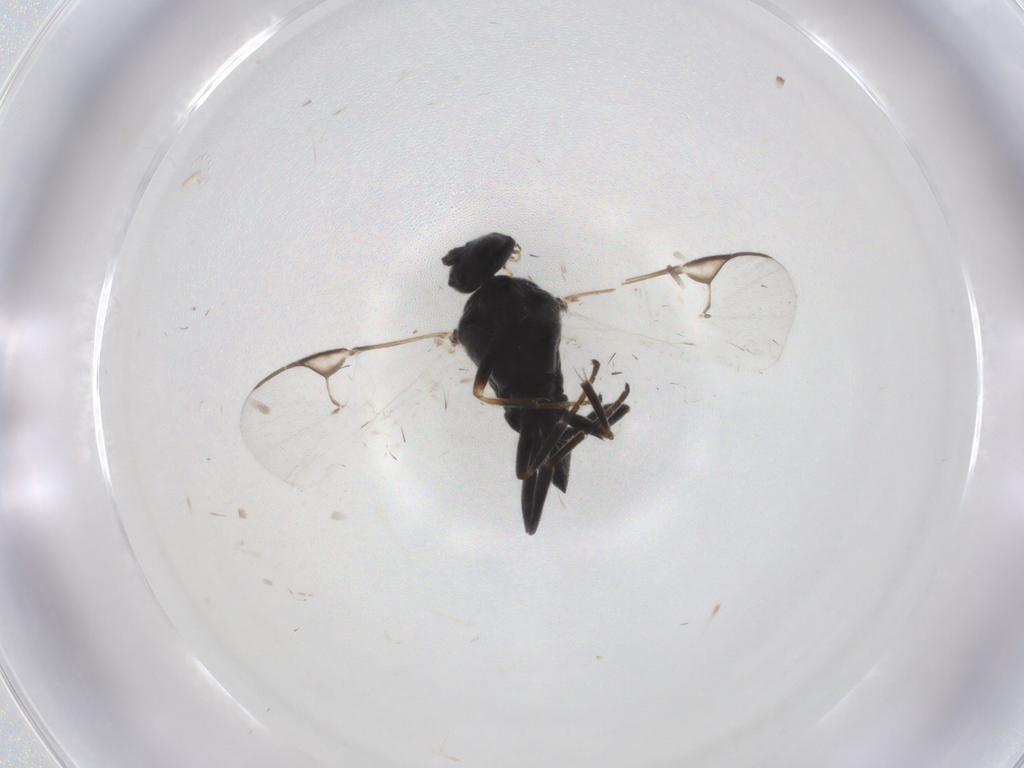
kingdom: Animalia
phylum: Arthropoda
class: Insecta
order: Hymenoptera
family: Braconidae
